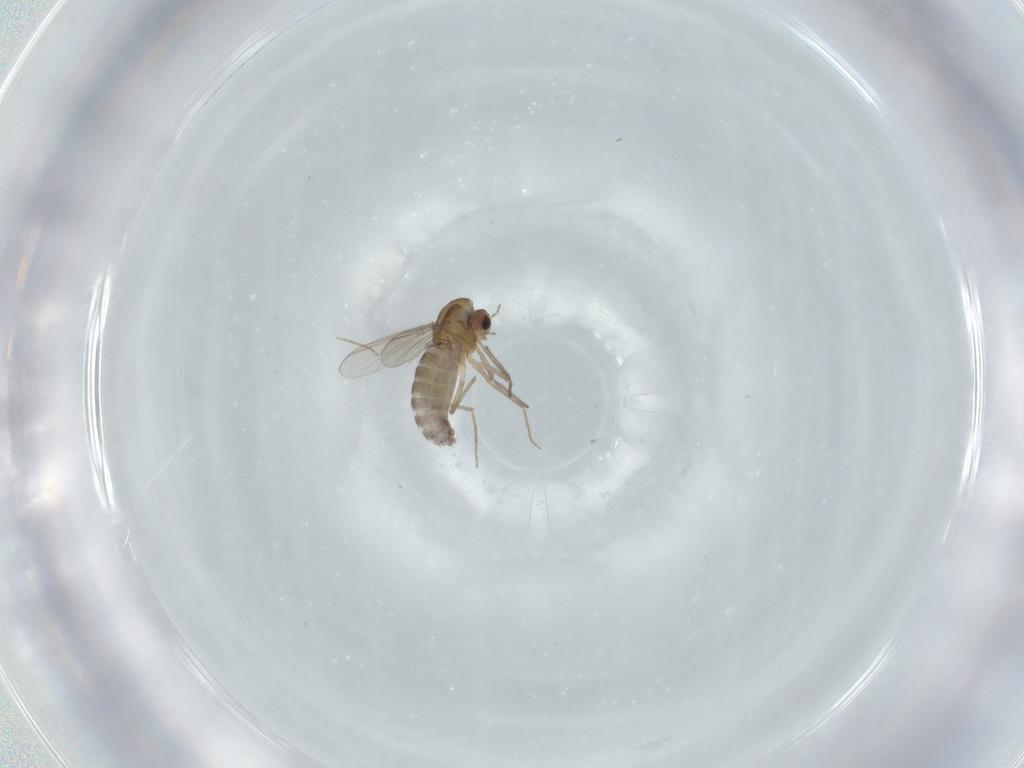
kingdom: Animalia
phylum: Arthropoda
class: Insecta
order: Diptera
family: Chironomidae
